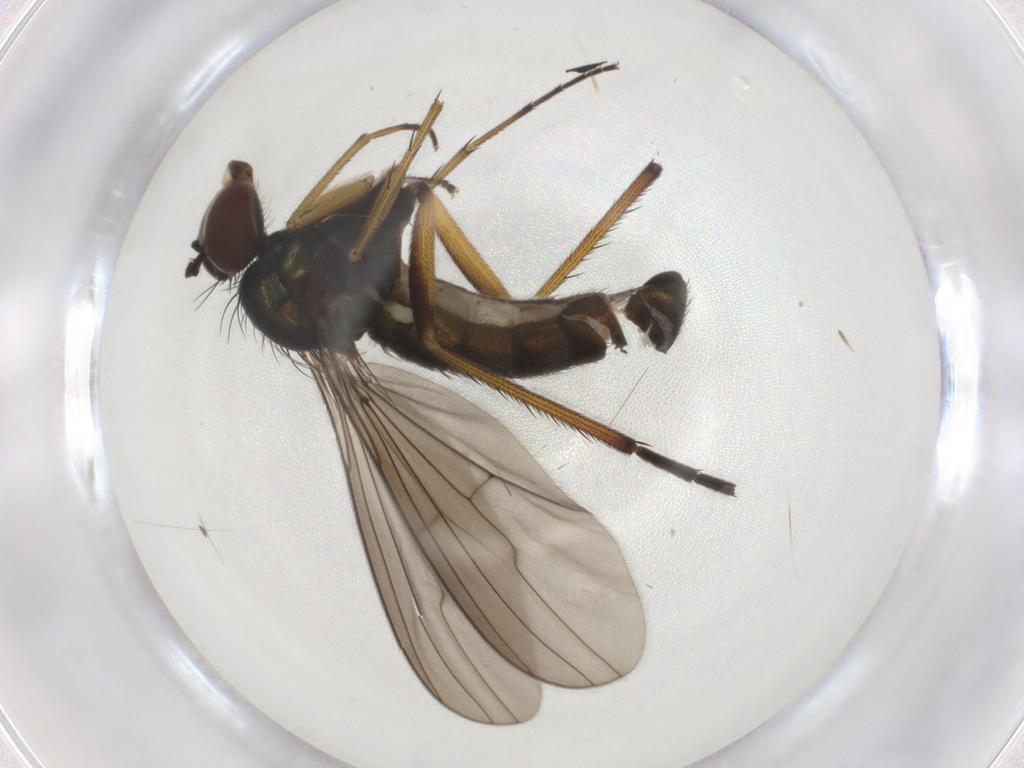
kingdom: Animalia
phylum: Arthropoda
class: Insecta
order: Diptera
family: Dolichopodidae
